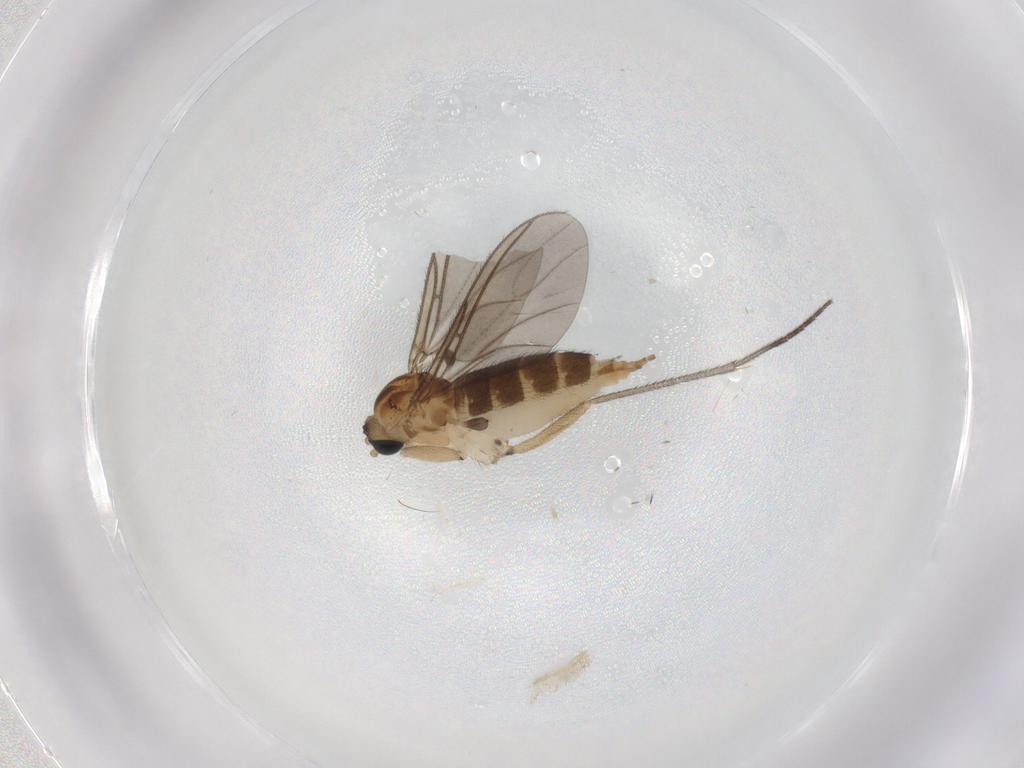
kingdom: Animalia
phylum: Arthropoda
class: Insecta
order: Diptera
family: Sciaridae
